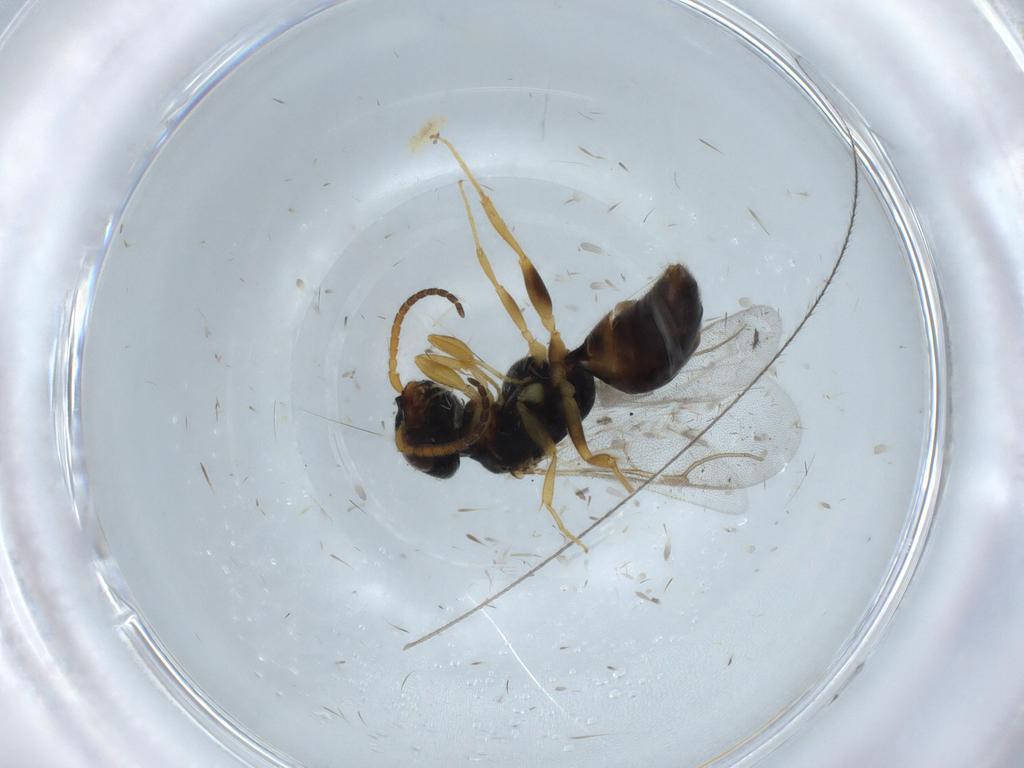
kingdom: Animalia
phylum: Arthropoda
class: Insecta
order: Hymenoptera
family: Bethylidae
